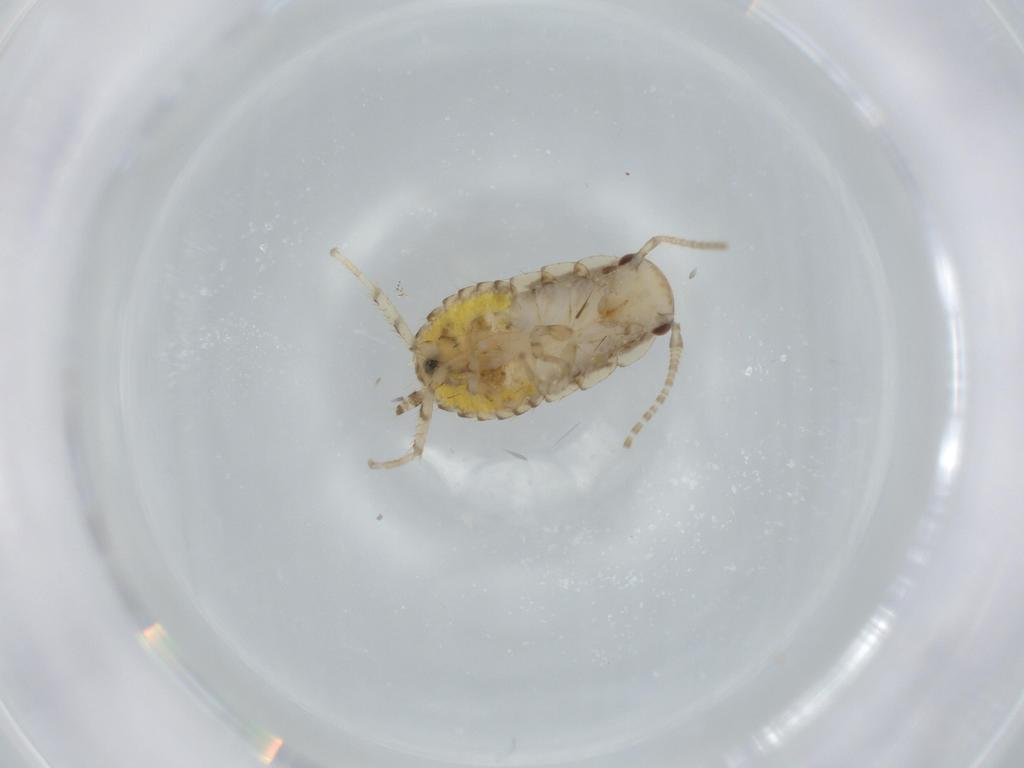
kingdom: Animalia
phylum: Arthropoda
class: Insecta
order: Blattodea
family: Ectobiidae
